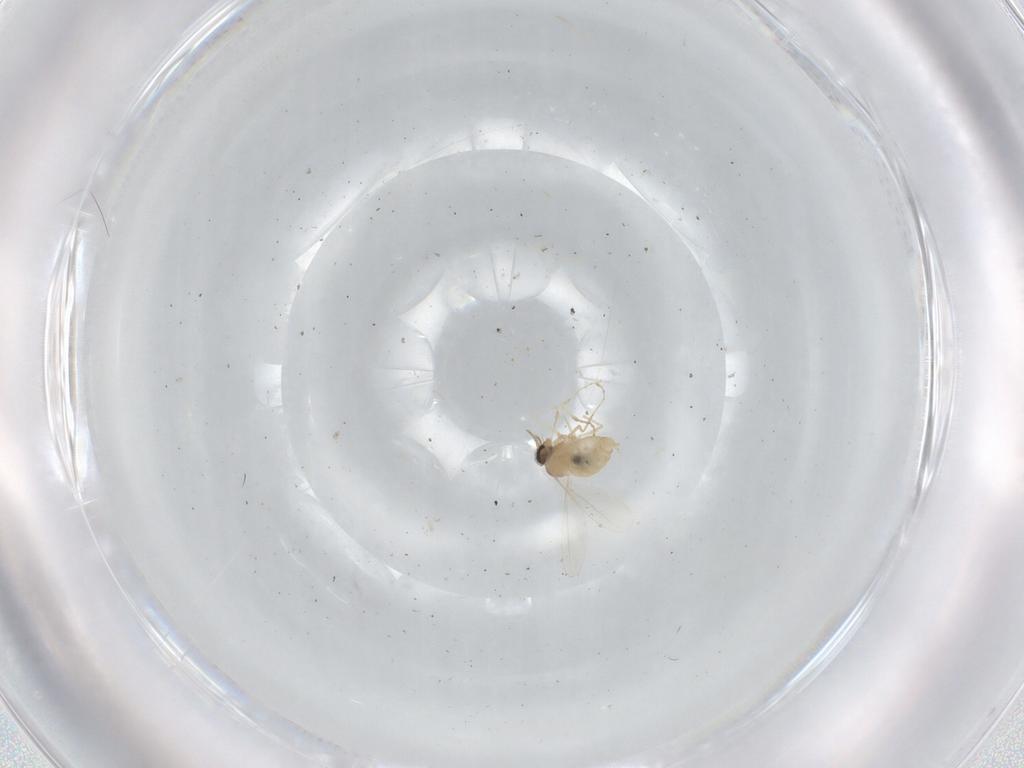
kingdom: Animalia
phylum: Arthropoda
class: Insecta
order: Diptera
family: Cecidomyiidae
